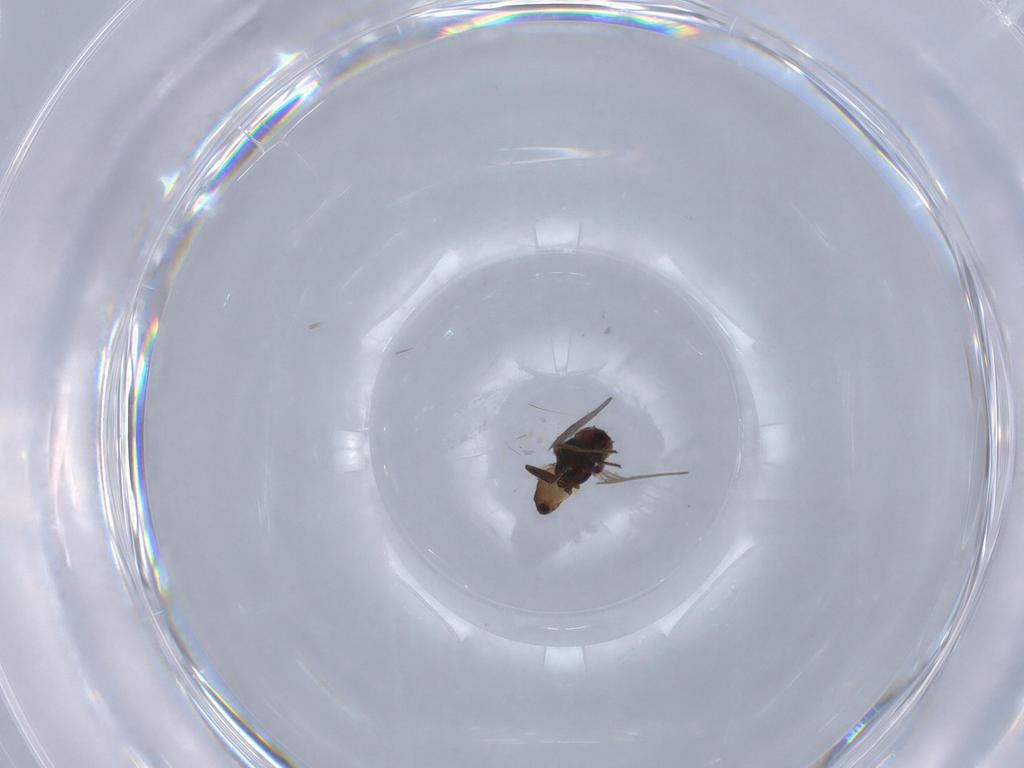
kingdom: Animalia
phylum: Arthropoda
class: Insecta
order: Diptera
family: Chloropidae
